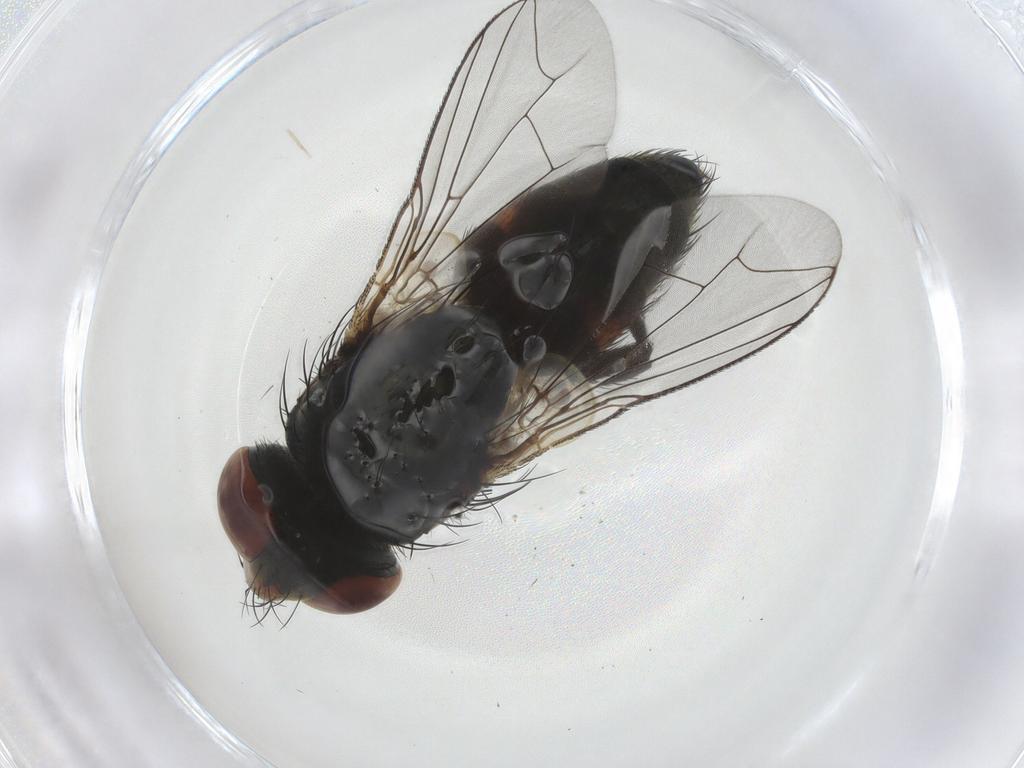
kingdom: Animalia
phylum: Arthropoda
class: Insecta
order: Diptera
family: Sarcophagidae
